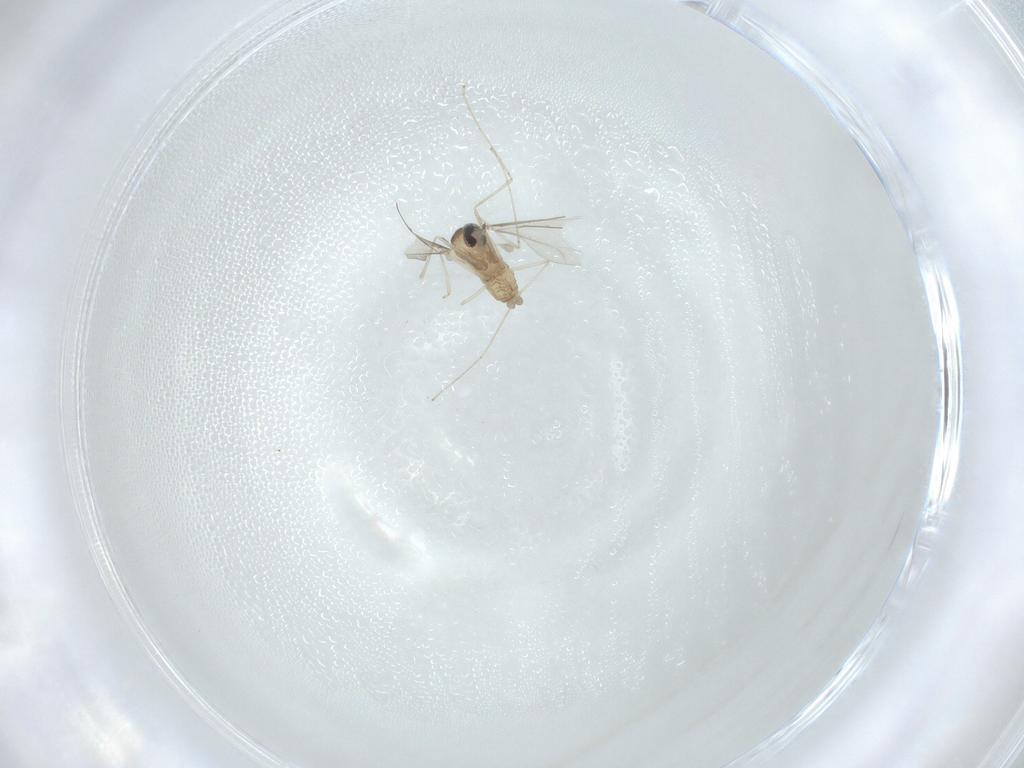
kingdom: Animalia
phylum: Arthropoda
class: Insecta
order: Diptera
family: Cecidomyiidae
